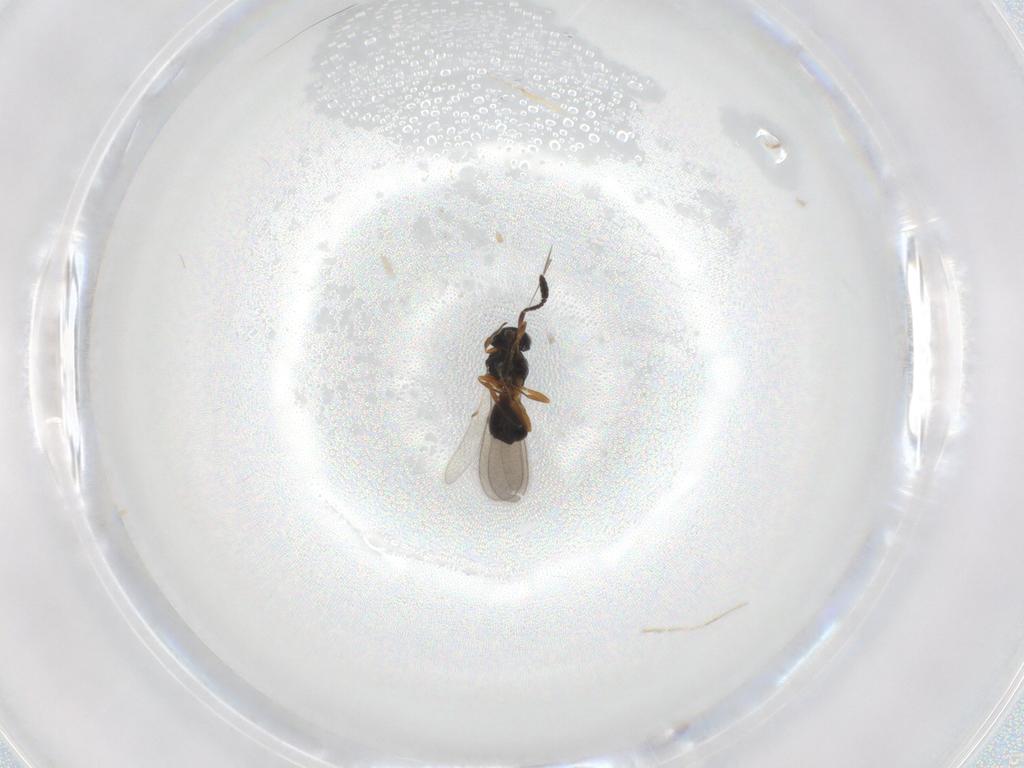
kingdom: Animalia
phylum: Arthropoda
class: Insecta
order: Hymenoptera
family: Scelionidae
